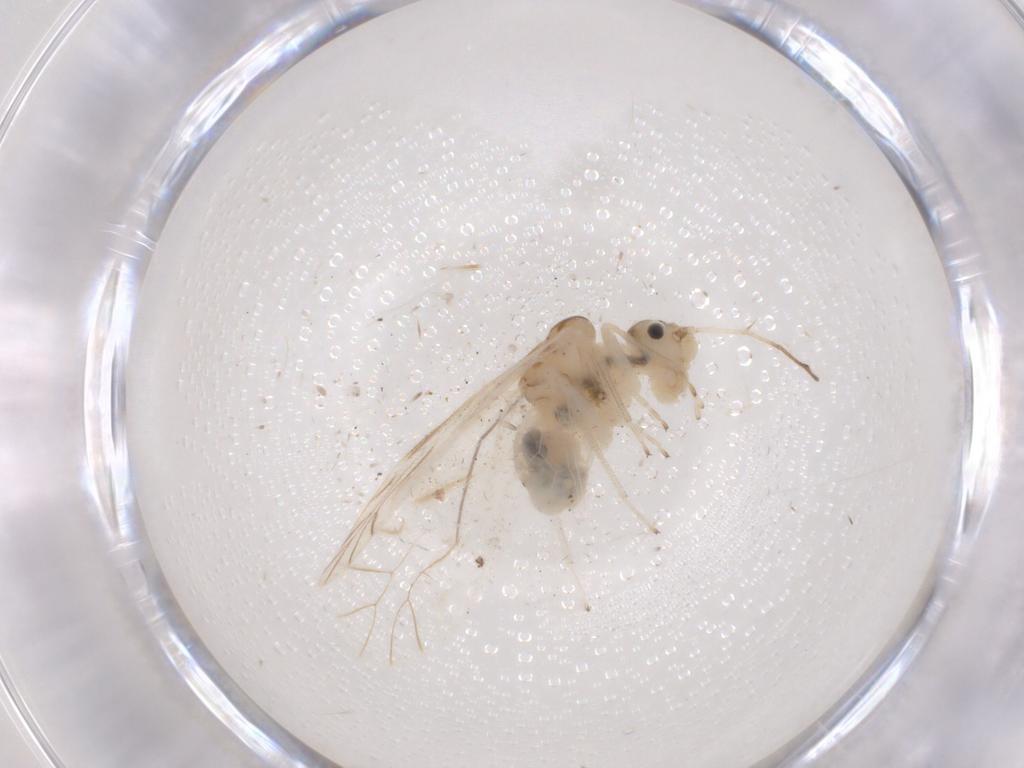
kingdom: Animalia
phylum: Arthropoda
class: Insecta
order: Psocodea
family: Caeciliusidae
